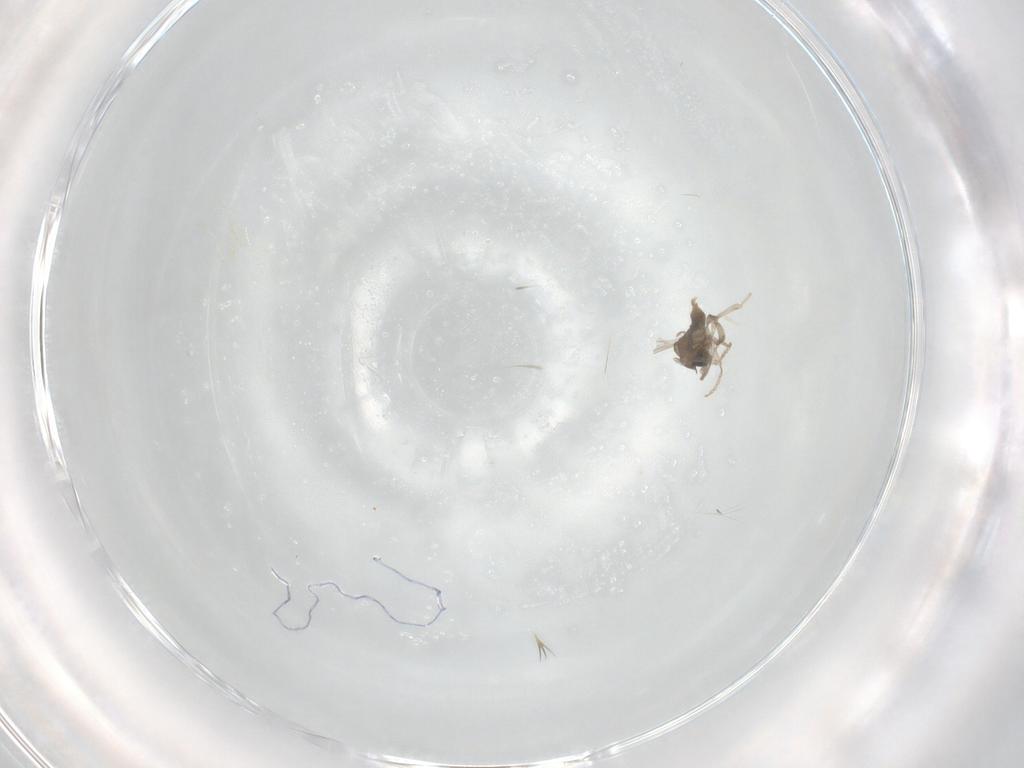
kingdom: Animalia
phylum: Arthropoda
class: Insecta
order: Diptera
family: Cecidomyiidae
